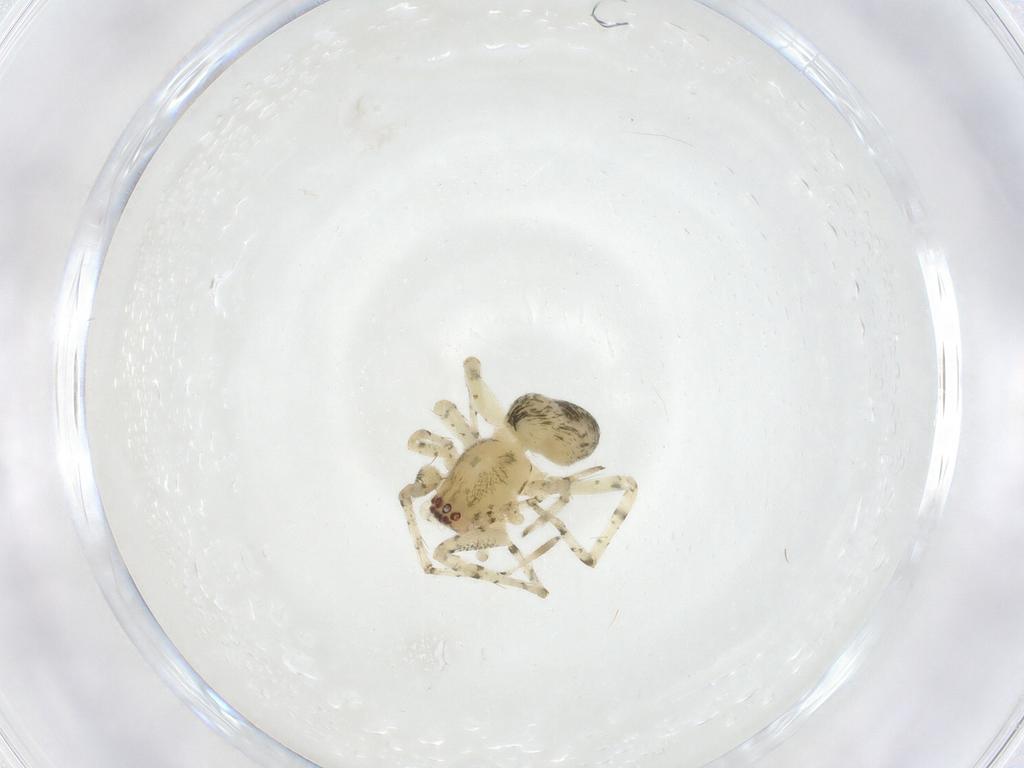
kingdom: Animalia
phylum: Arthropoda
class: Arachnida
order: Araneae
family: Anyphaenidae
